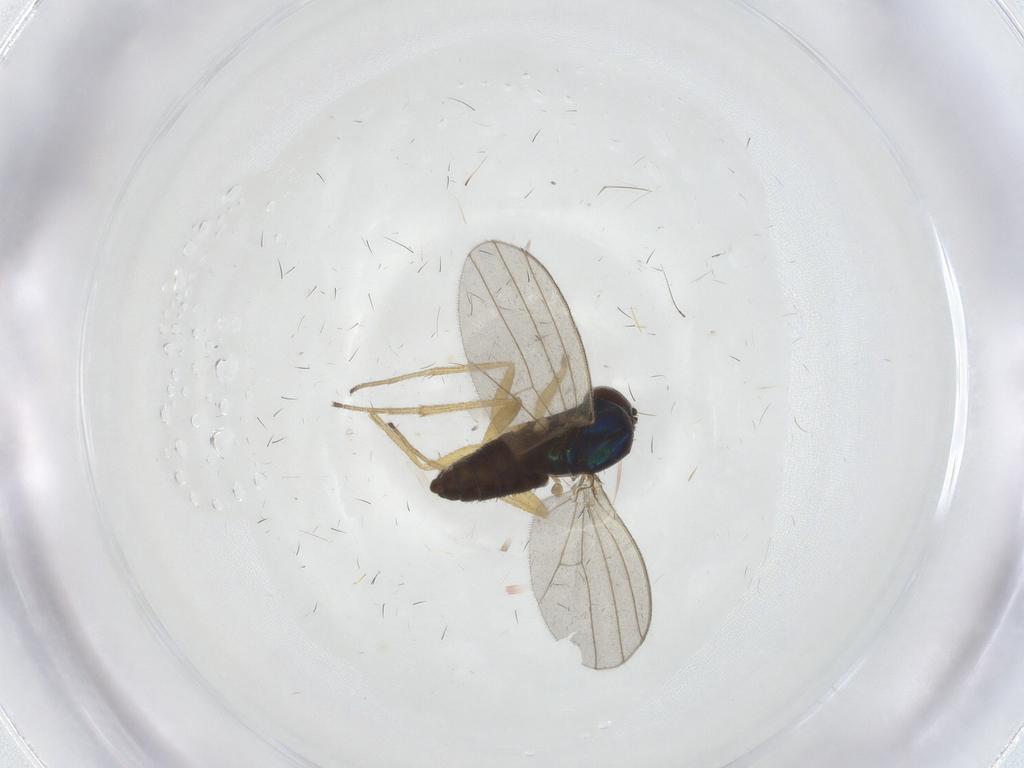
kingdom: Animalia
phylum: Arthropoda
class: Insecta
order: Diptera
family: Dolichopodidae
